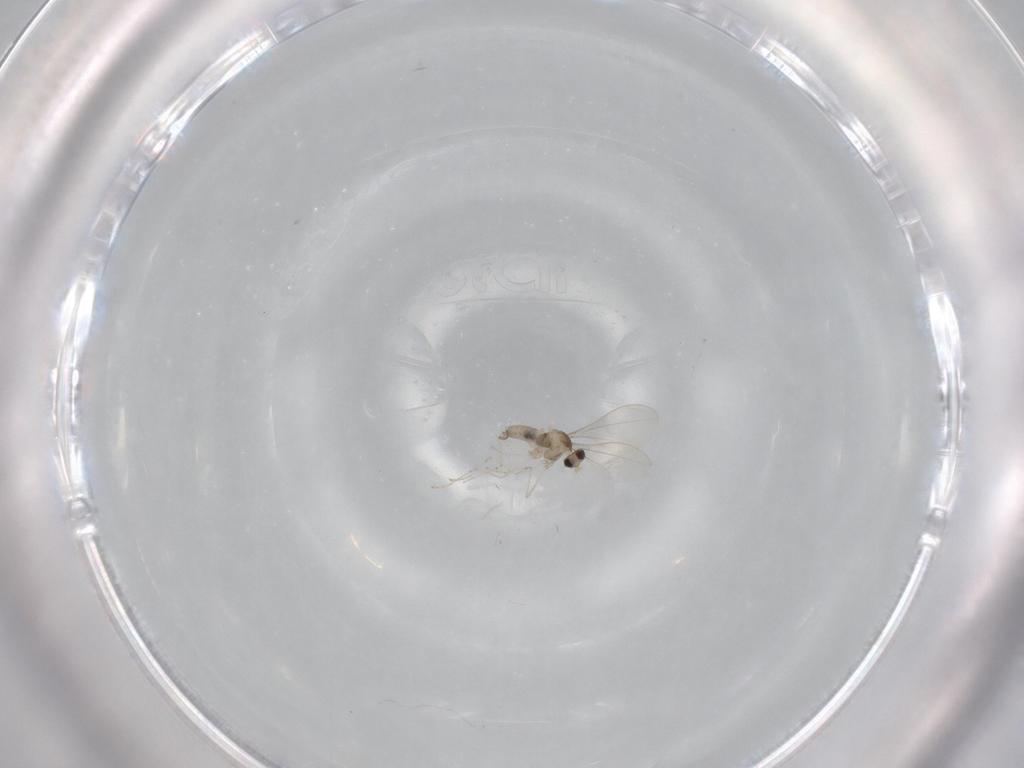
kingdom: Animalia
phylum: Arthropoda
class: Insecta
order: Diptera
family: Cecidomyiidae
